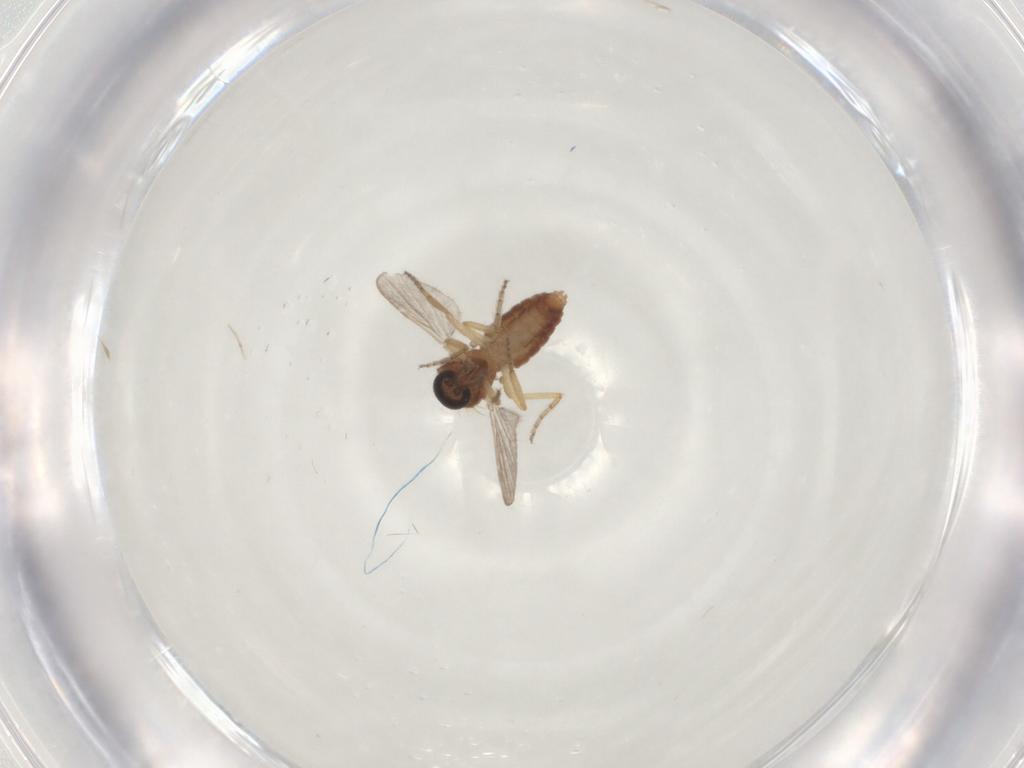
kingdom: Animalia
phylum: Arthropoda
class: Insecta
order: Diptera
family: Ceratopogonidae
